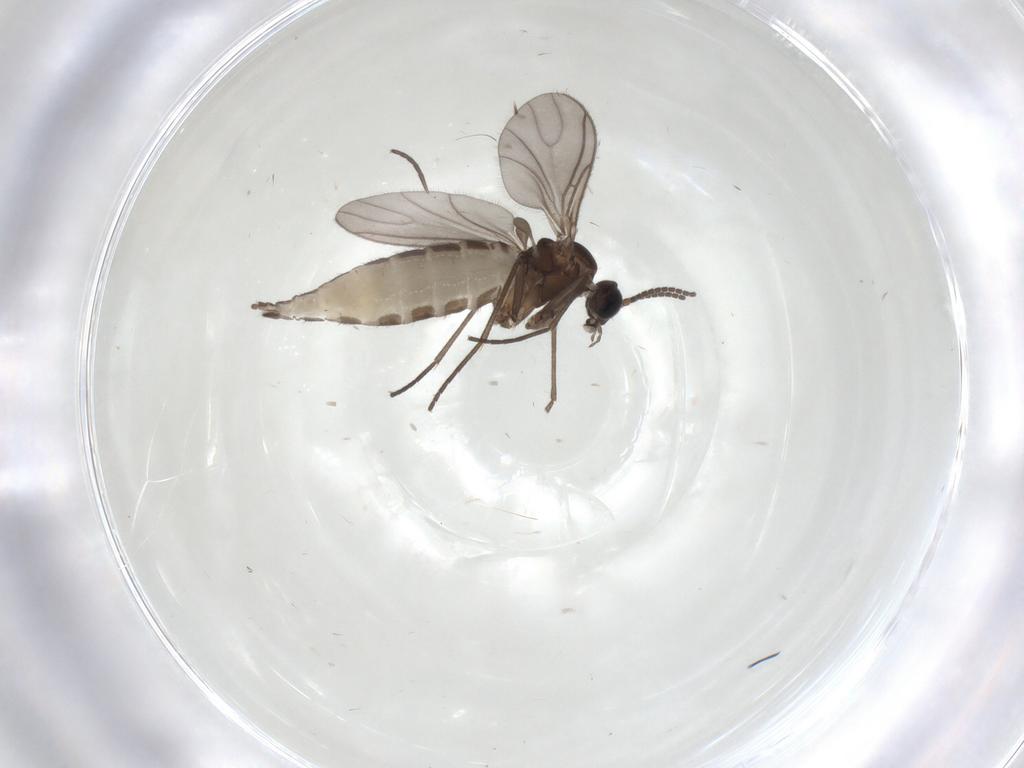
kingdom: Animalia
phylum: Arthropoda
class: Insecta
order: Diptera
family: Sciaridae
